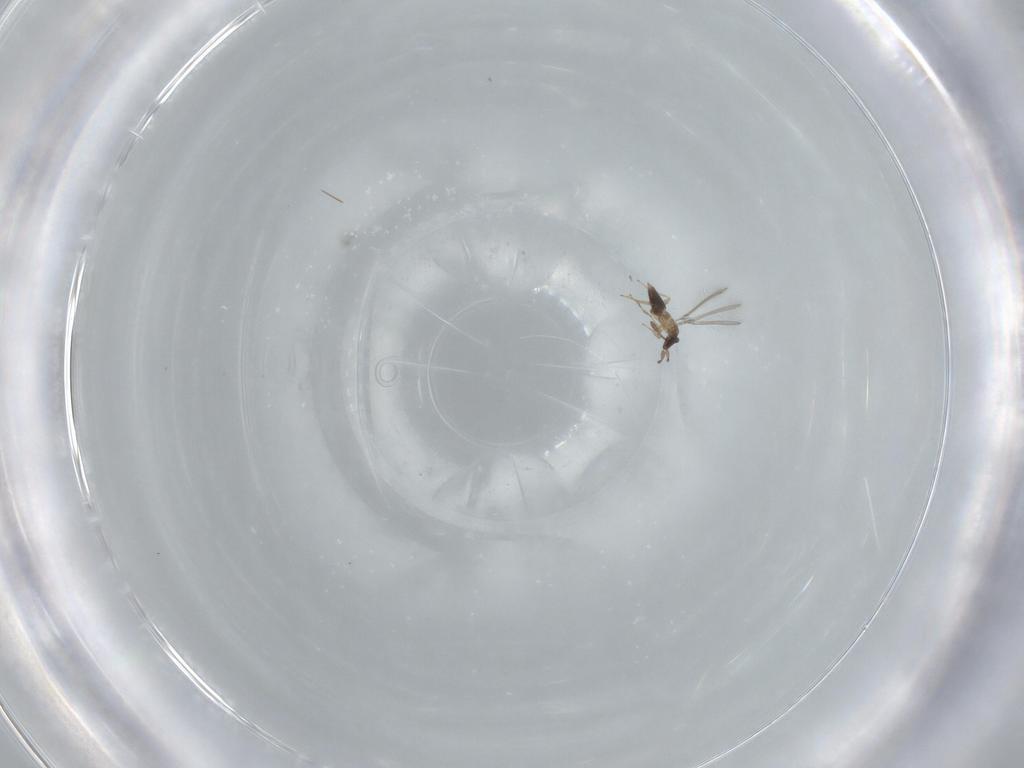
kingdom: Animalia
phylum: Arthropoda
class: Insecta
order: Hymenoptera
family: Mymaridae
